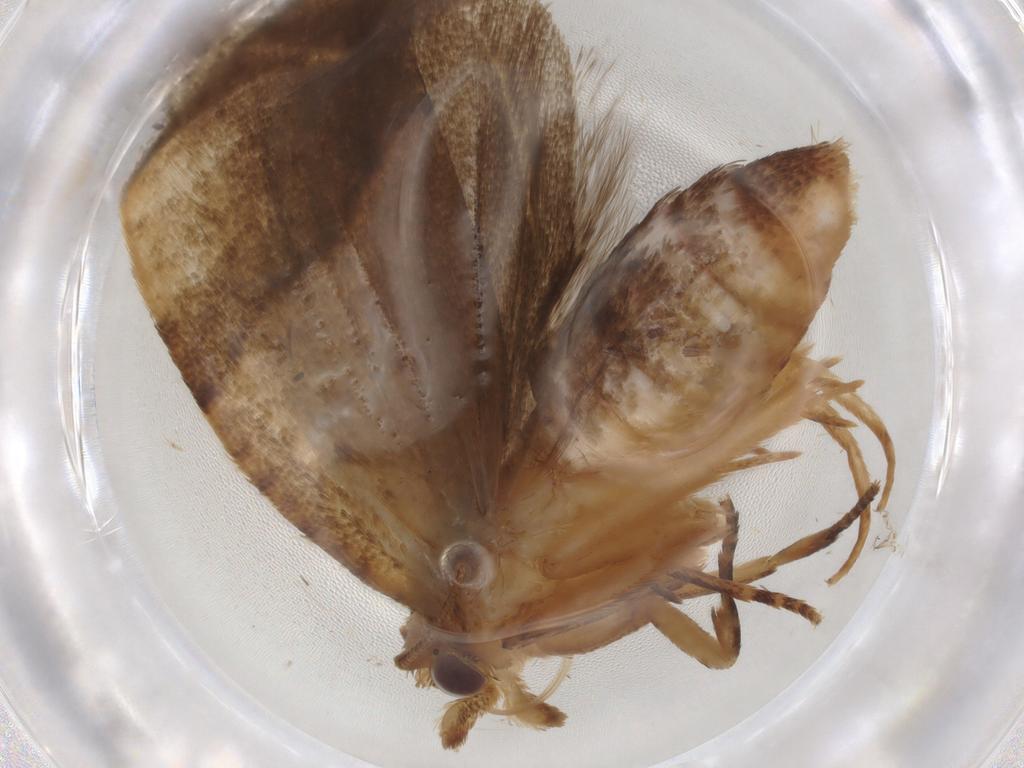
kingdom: Animalia
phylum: Arthropoda
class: Insecta
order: Lepidoptera
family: Tortricidae
